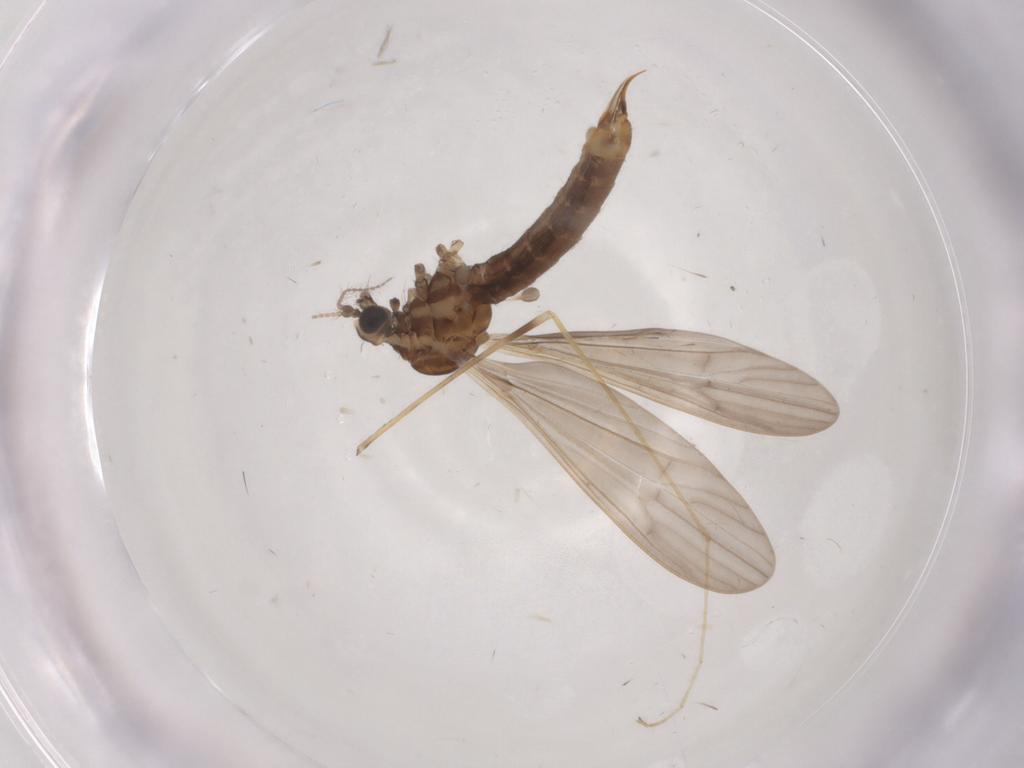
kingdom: Animalia
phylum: Arthropoda
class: Insecta
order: Diptera
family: Limoniidae
